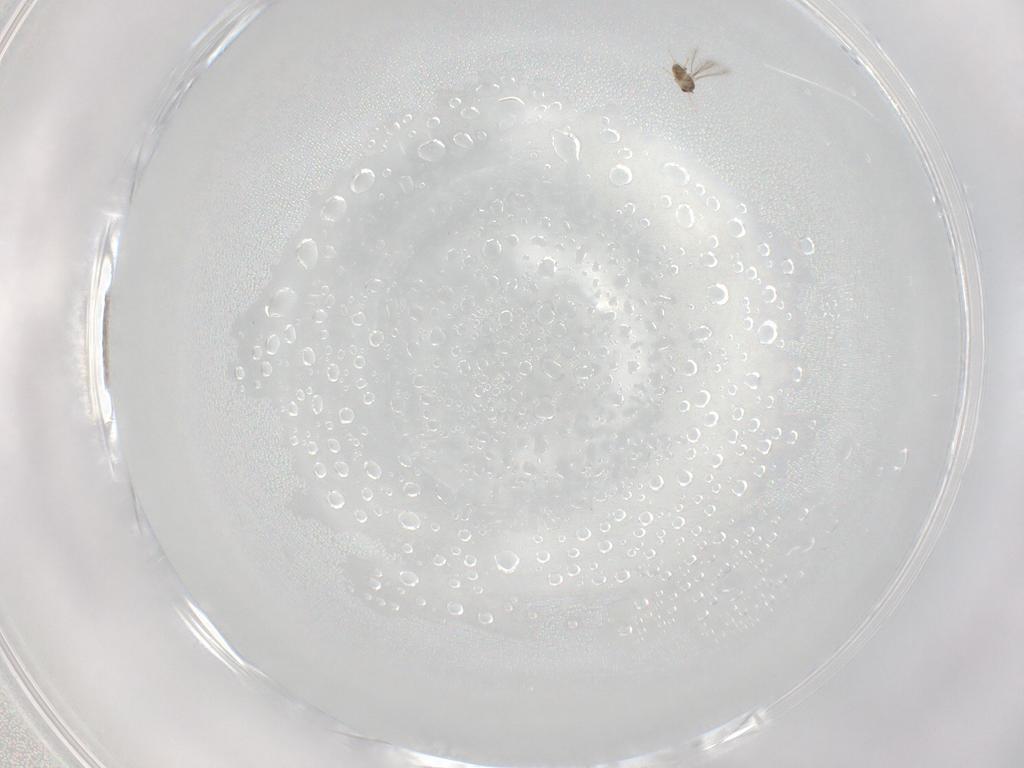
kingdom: Animalia
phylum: Arthropoda
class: Insecta
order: Hymenoptera
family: Mymaridae
